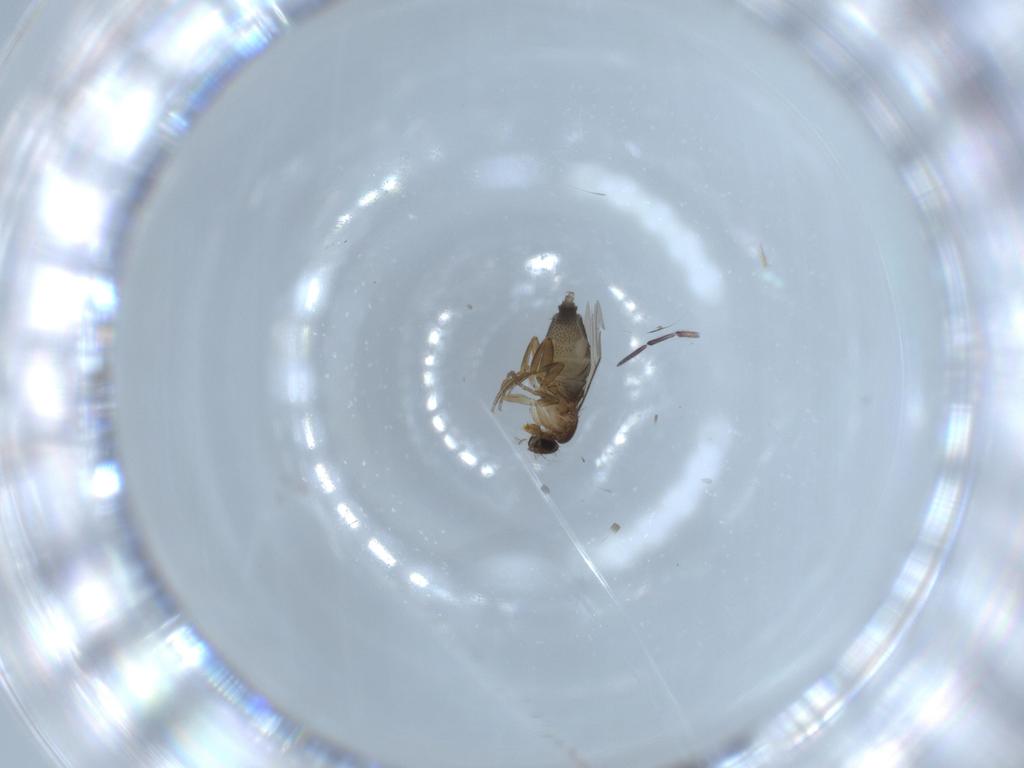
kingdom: Animalia
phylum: Arthropoda
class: Insecta
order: Diptera
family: Phoridae
